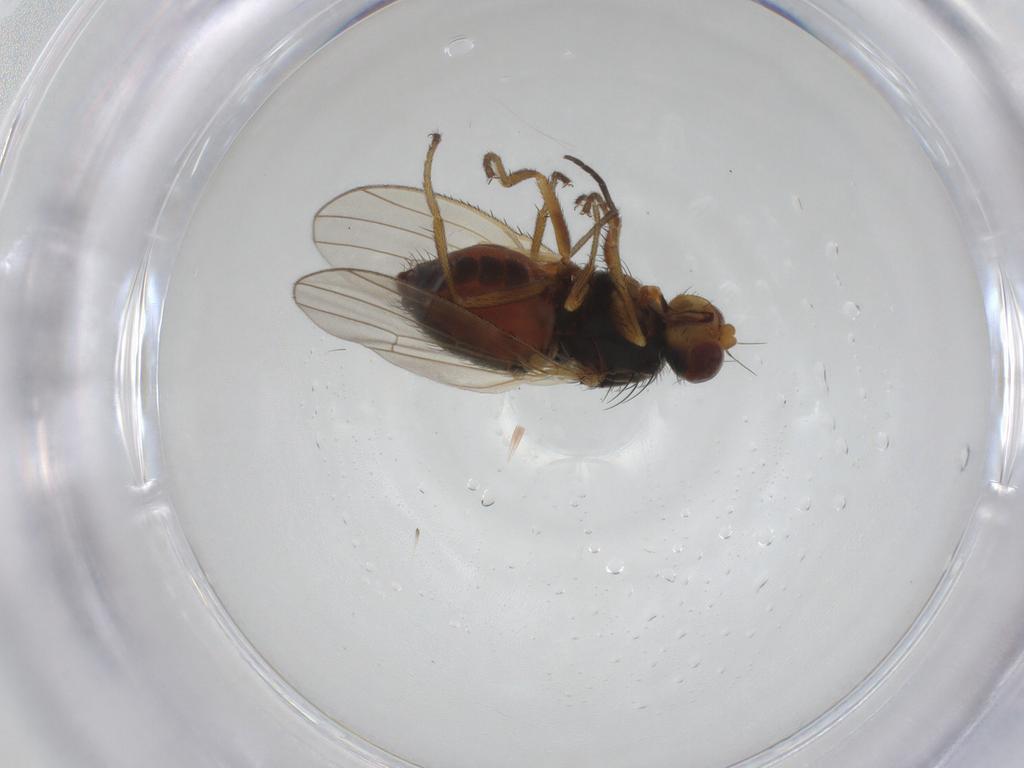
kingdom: Animalia
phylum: Arthropoda
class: Insecta
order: Diptera
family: Heleomyzidae
